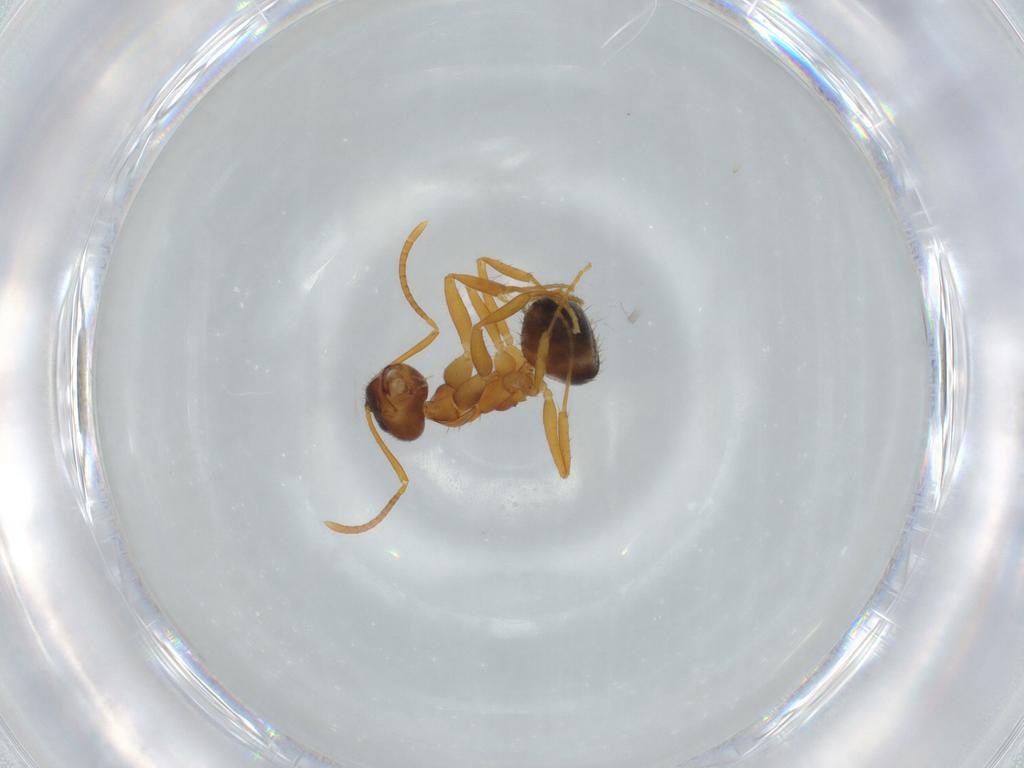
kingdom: Animalia
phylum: Arthropoda
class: Insecta
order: Hymenoptera
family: Formicidae
